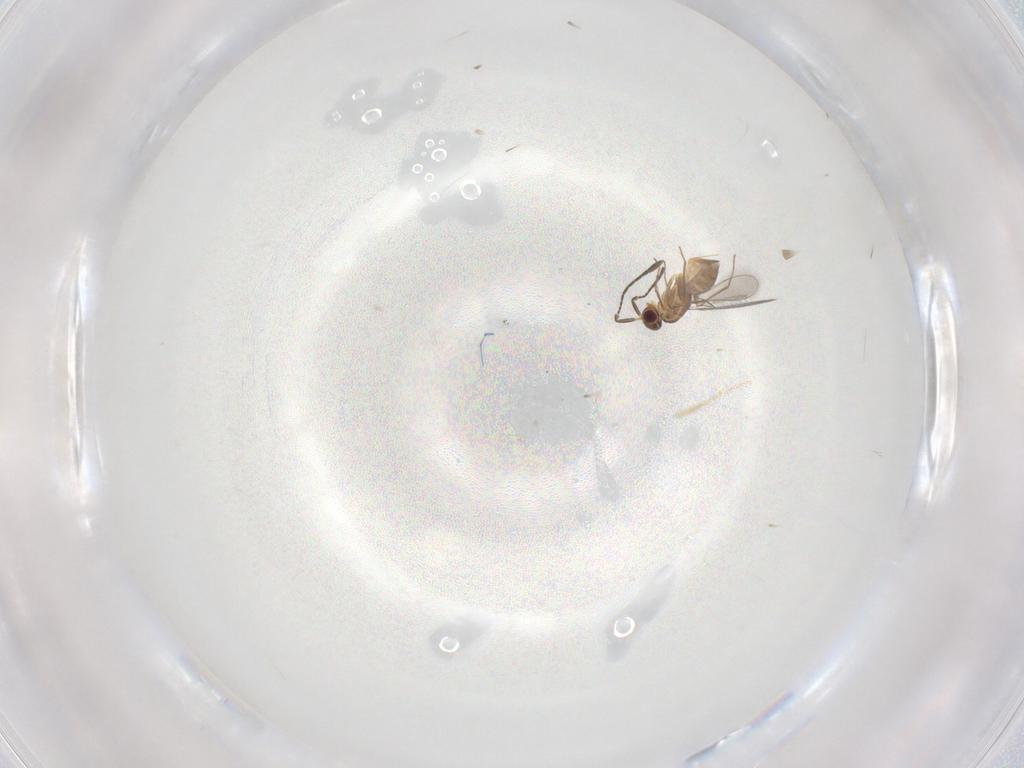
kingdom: Animalia
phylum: Arthropoda
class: Insecta
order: Hymenoptera
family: Mymaridae
